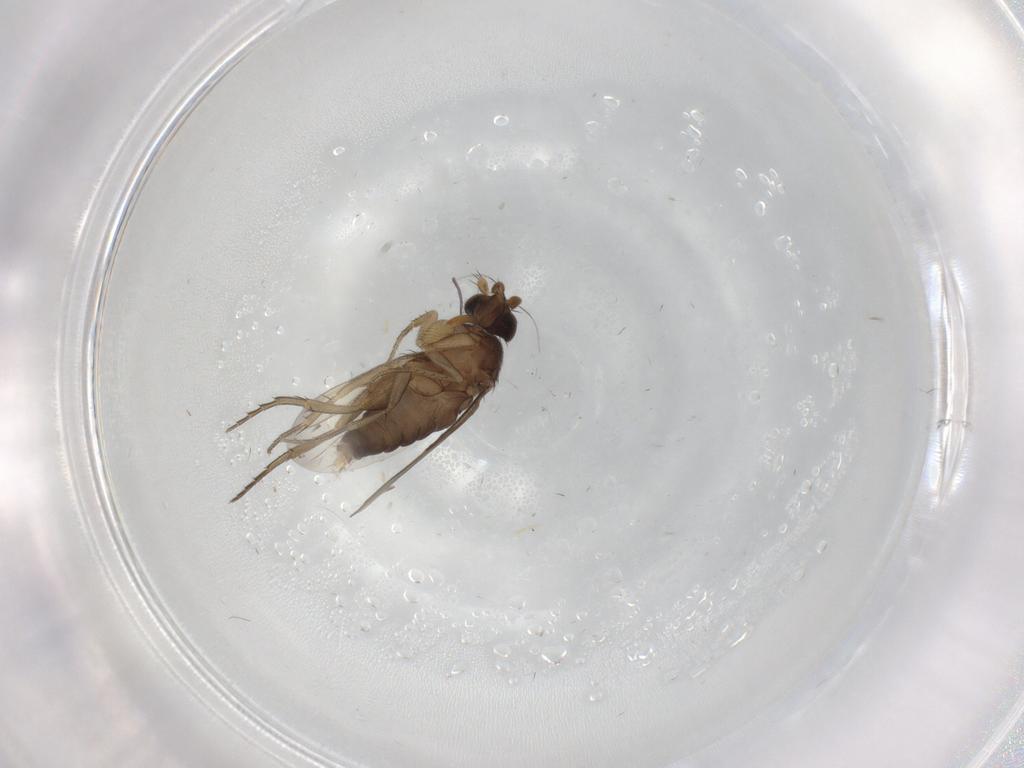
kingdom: Animalia
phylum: Arthropoda
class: Insecta
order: Diptera
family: Phoridae
